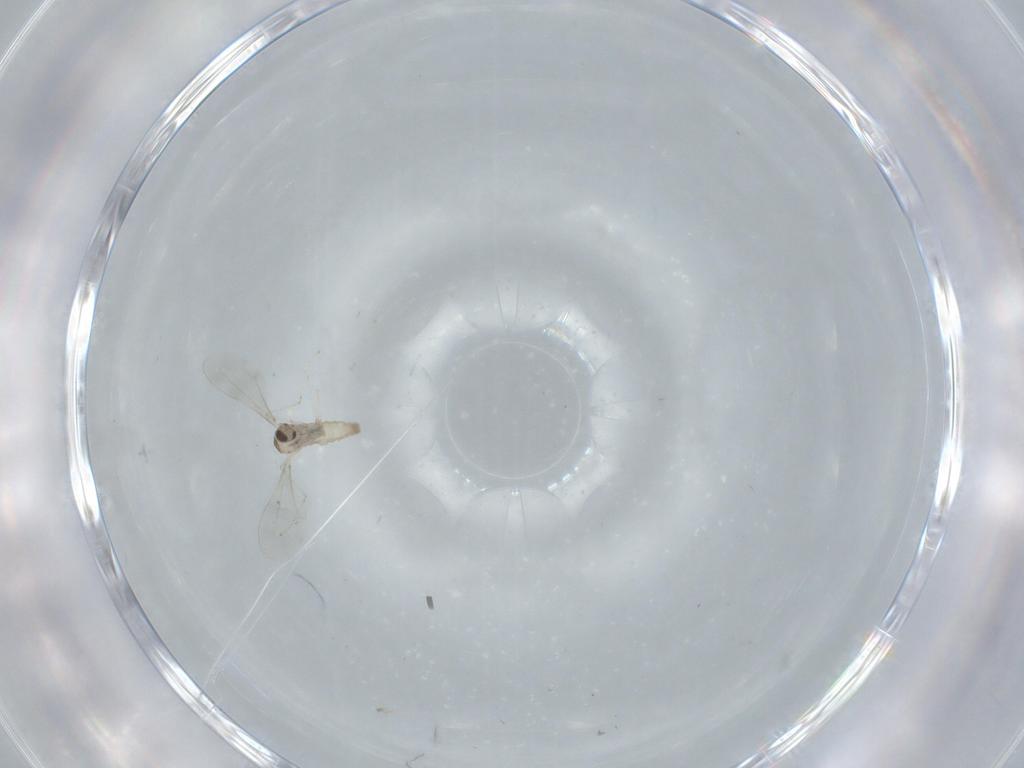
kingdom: Animalia
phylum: Arthropoda
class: Insecta
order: Diptera
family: Cecidomyiidae
